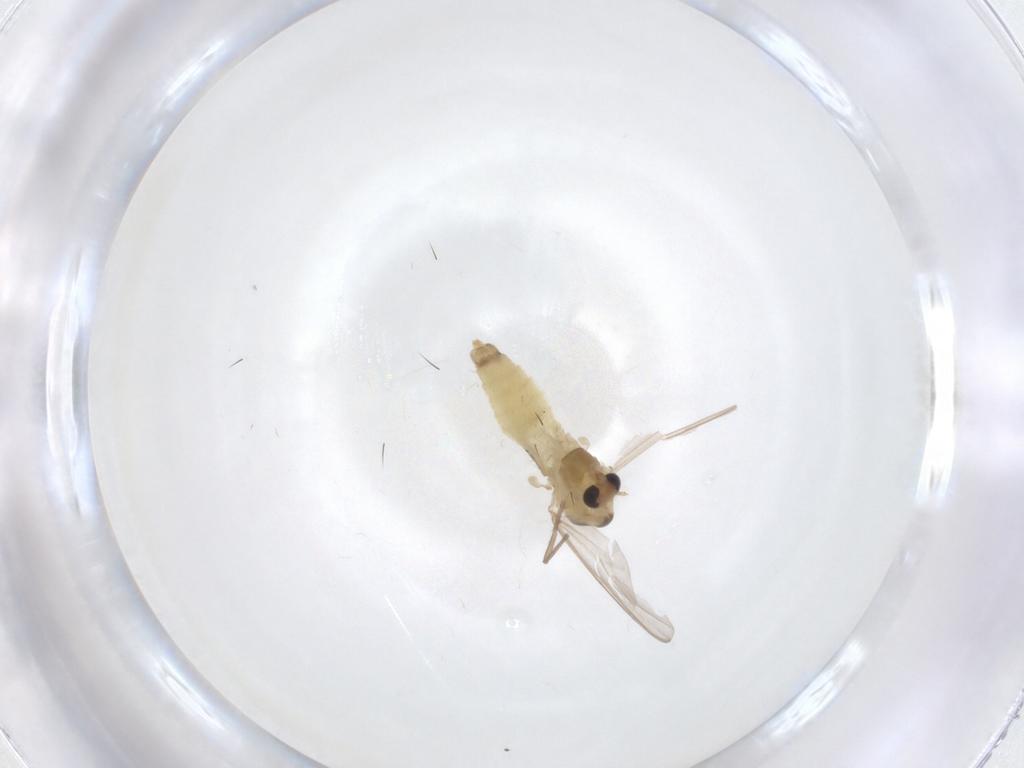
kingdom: Animalia
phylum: Arthropoda
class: Insecta
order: Diptera
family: Chironomidae
